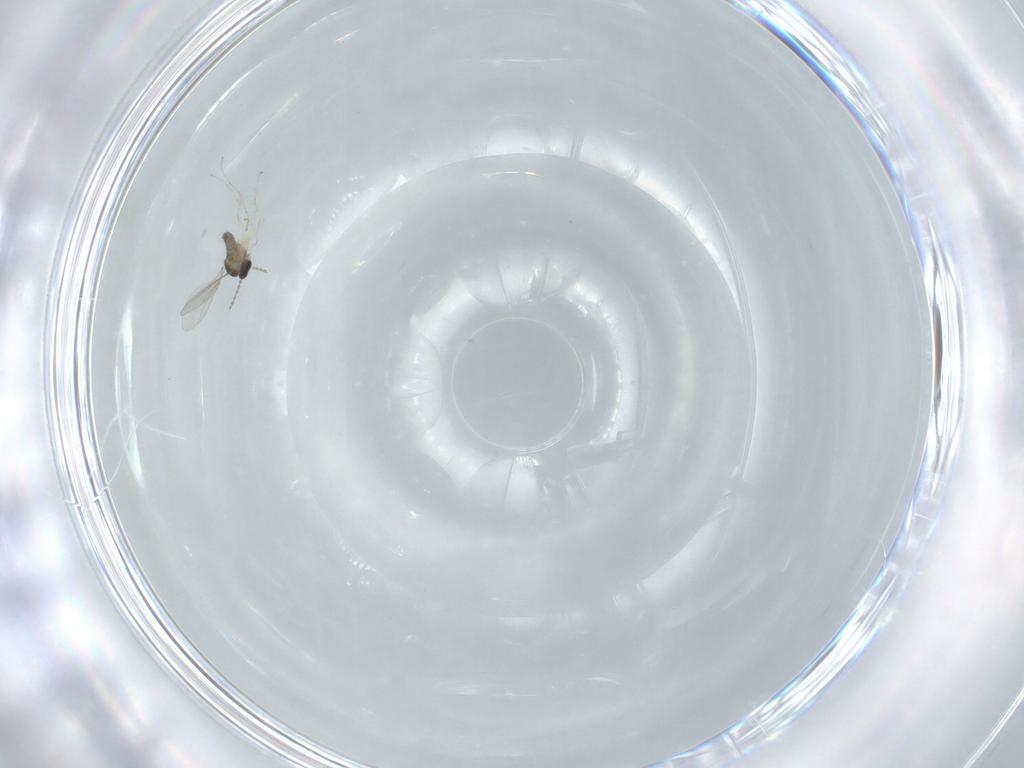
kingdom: Animalia
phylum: Arthropoda
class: Insecta
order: Diptera
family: Cecidomyiidae
